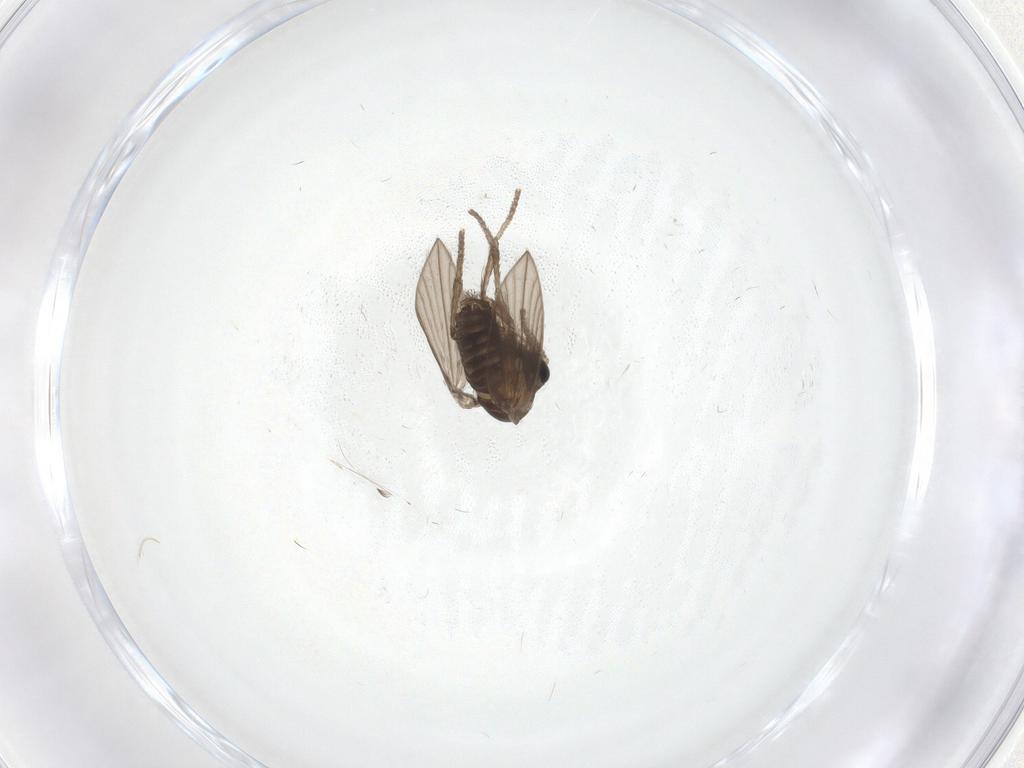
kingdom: Animalia
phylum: Arthropoda
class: Insecta
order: Diptera
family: Psychodidae
